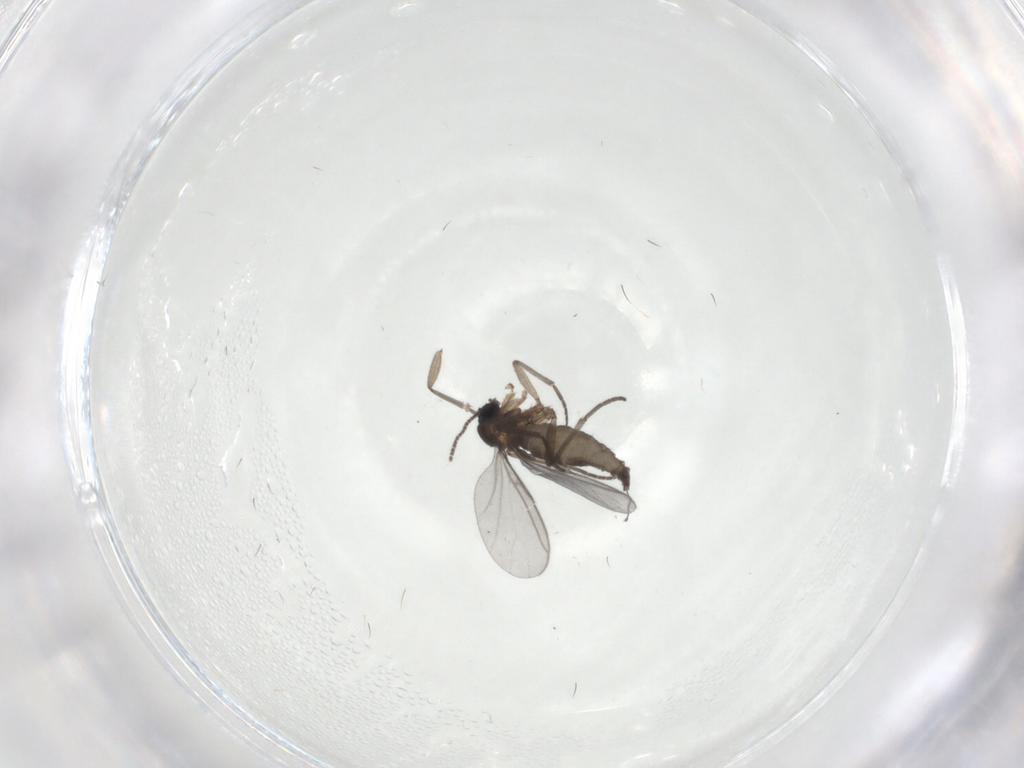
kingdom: Animalia
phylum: Arthropoda
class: Insecta
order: Diptera
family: Sciaridae
